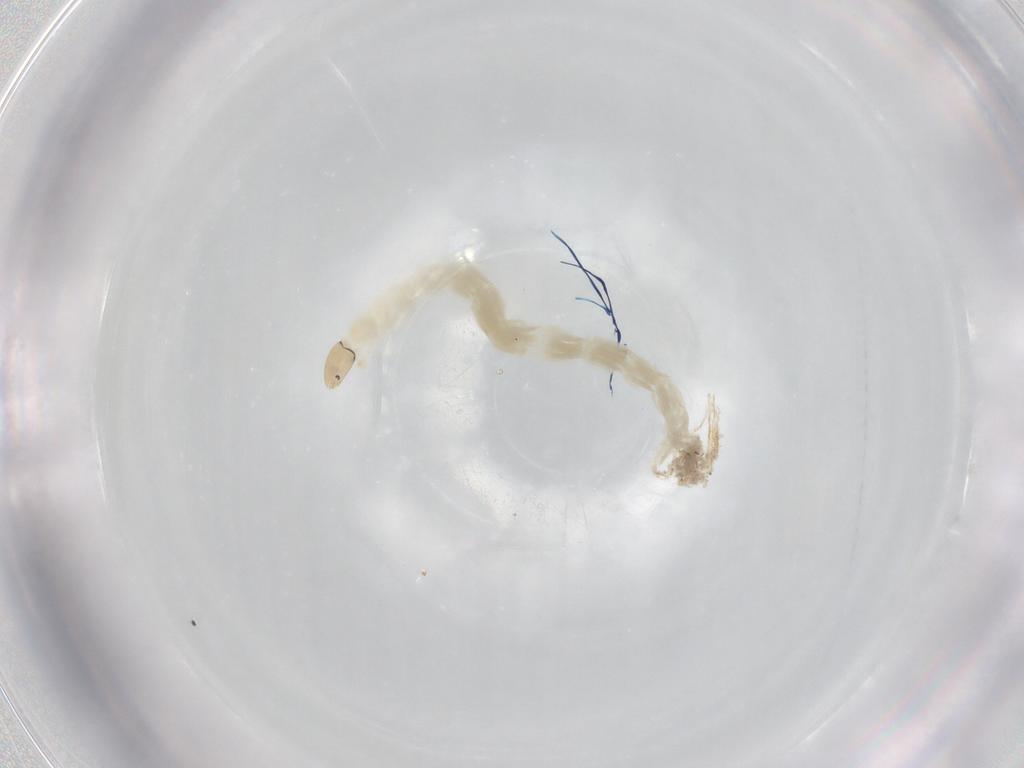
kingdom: Animalia
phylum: Arthropoda
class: Insecta
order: Diptera
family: Chironomidae
